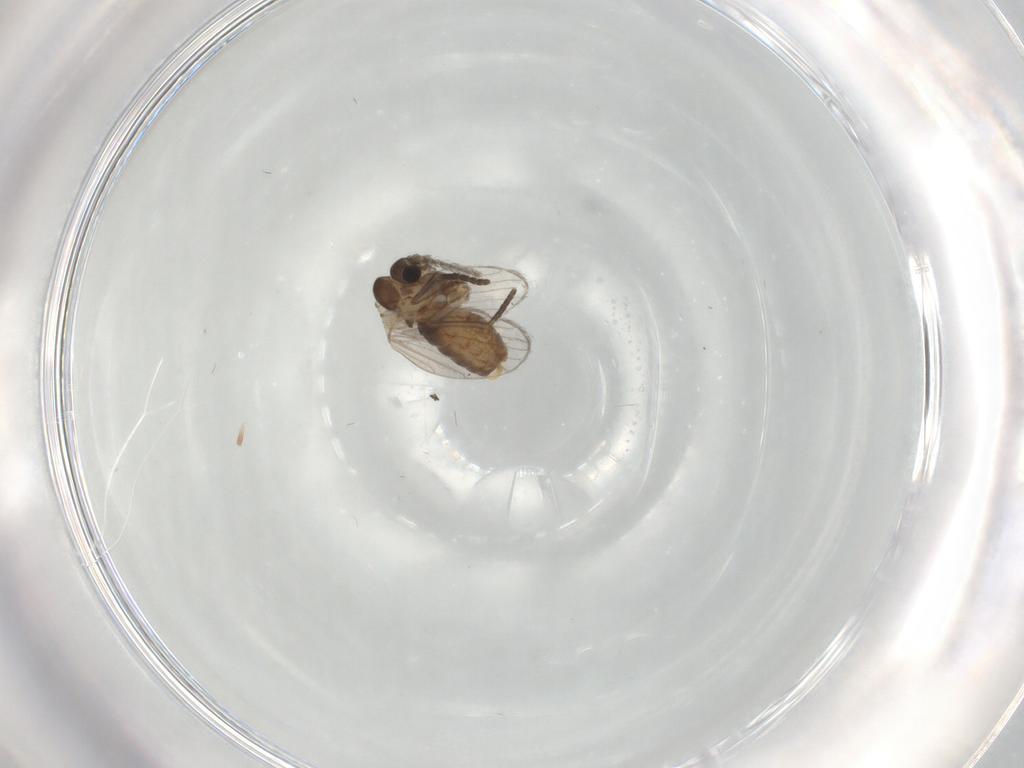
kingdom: Animalia
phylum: Arthropoda
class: Insecta
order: Diptera
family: Psychodidae
